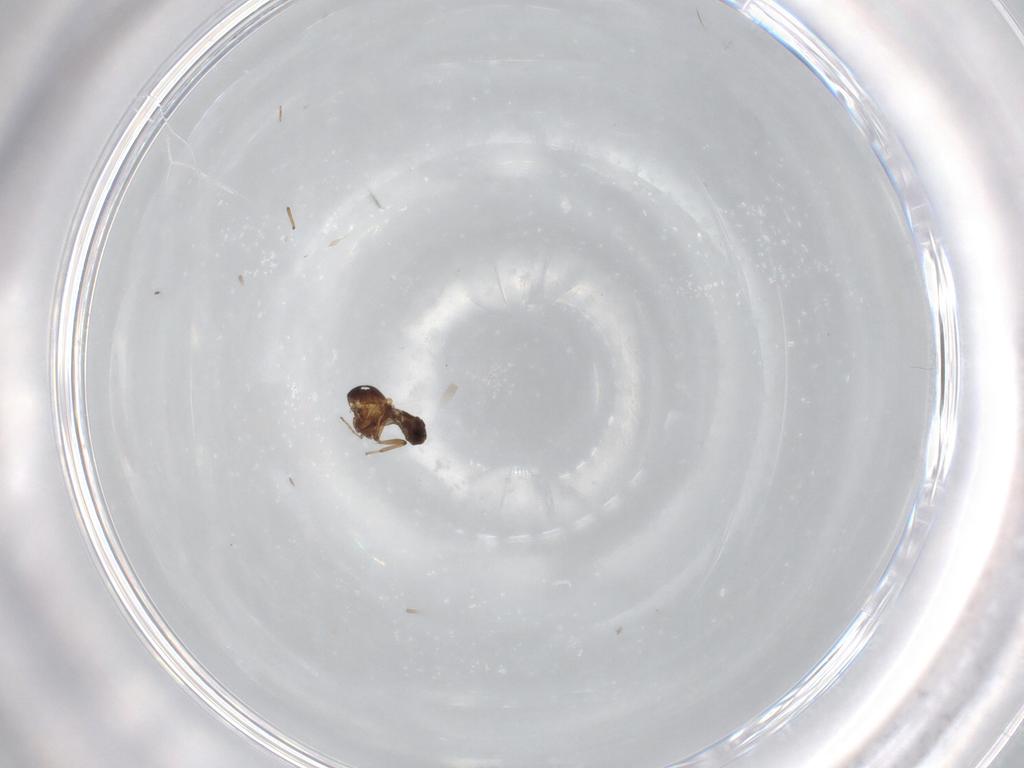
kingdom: Animalia
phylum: Arthropoda
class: Insecta
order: Diptera
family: Ceratopogonidae
